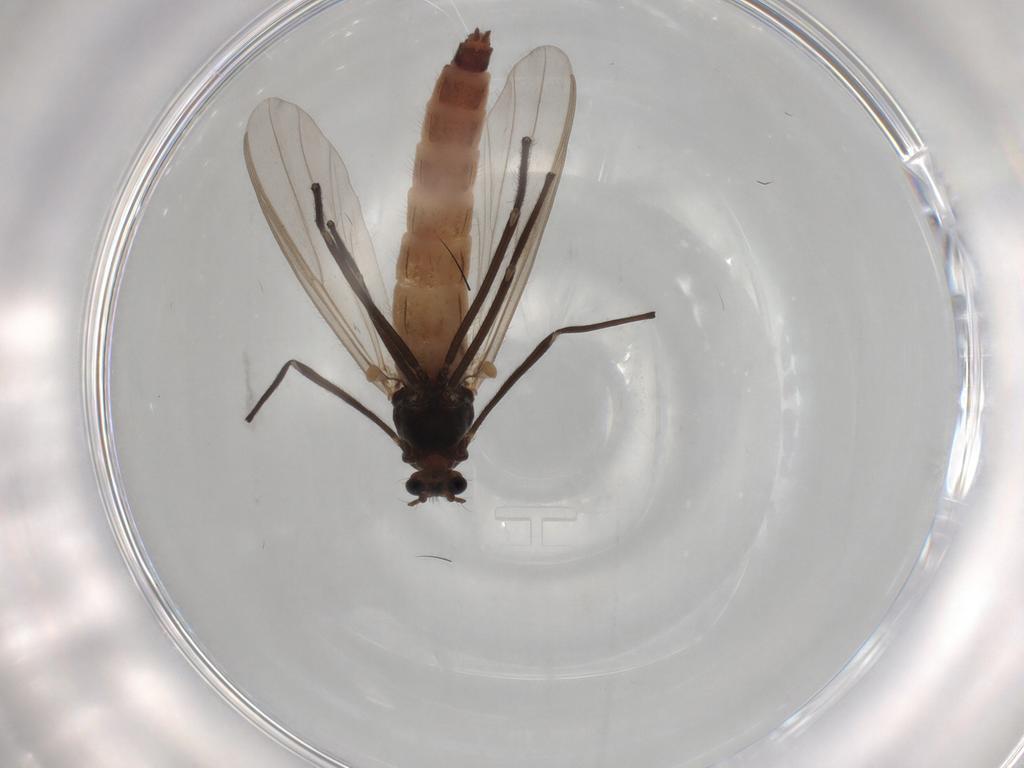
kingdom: Animalia
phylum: Arthropoda
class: Insecta
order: Diptera
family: Chironomidae
